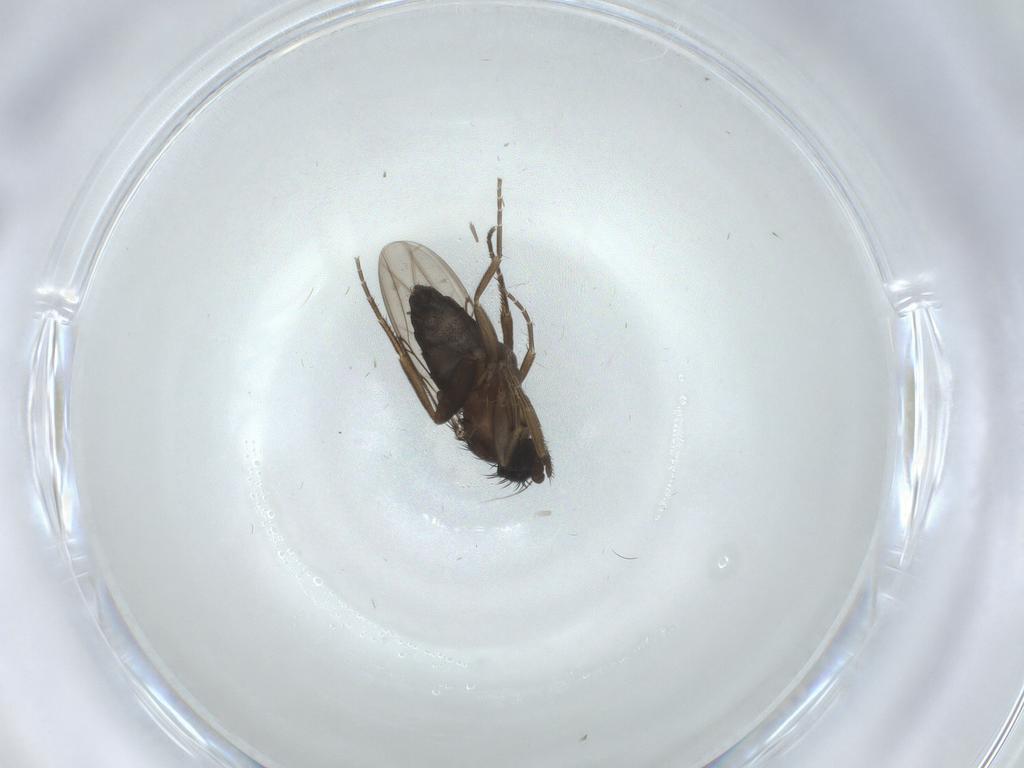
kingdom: Animalia
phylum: Arthropoda
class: Insecta
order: Diptera
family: Phoridae
